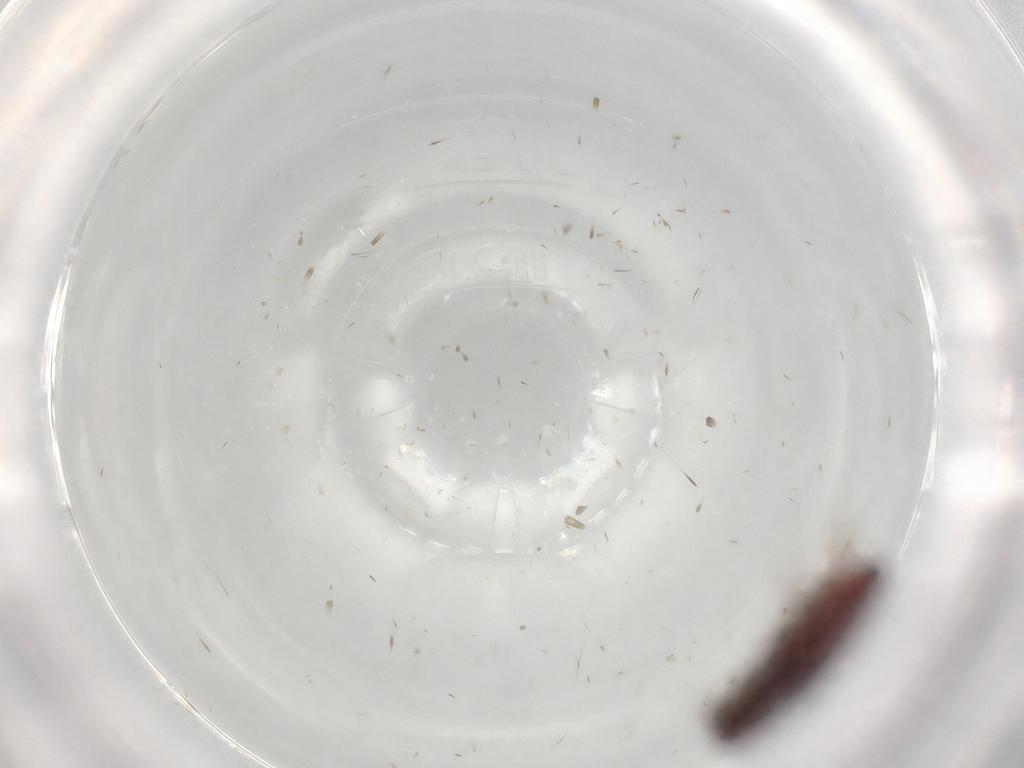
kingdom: Animalia
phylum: Arthropoda
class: Insecta
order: Coleoptera
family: Throscidae
